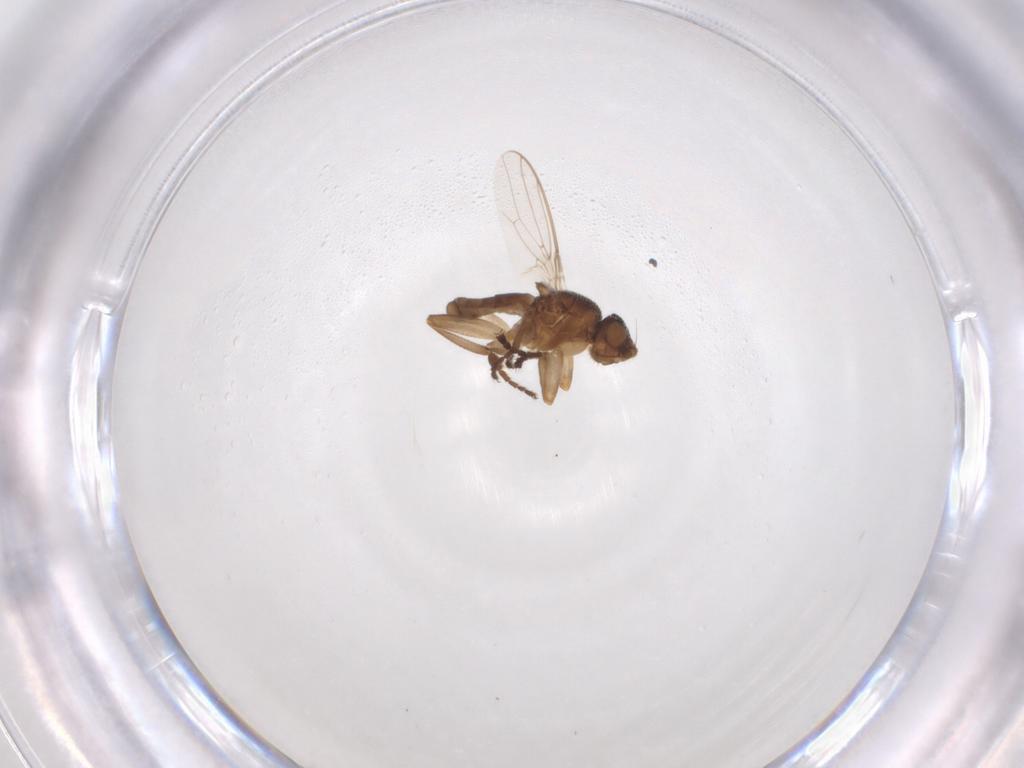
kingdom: Animalia
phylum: Arthropoda
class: Insecta
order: Diptera
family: Sphaeroceridae
